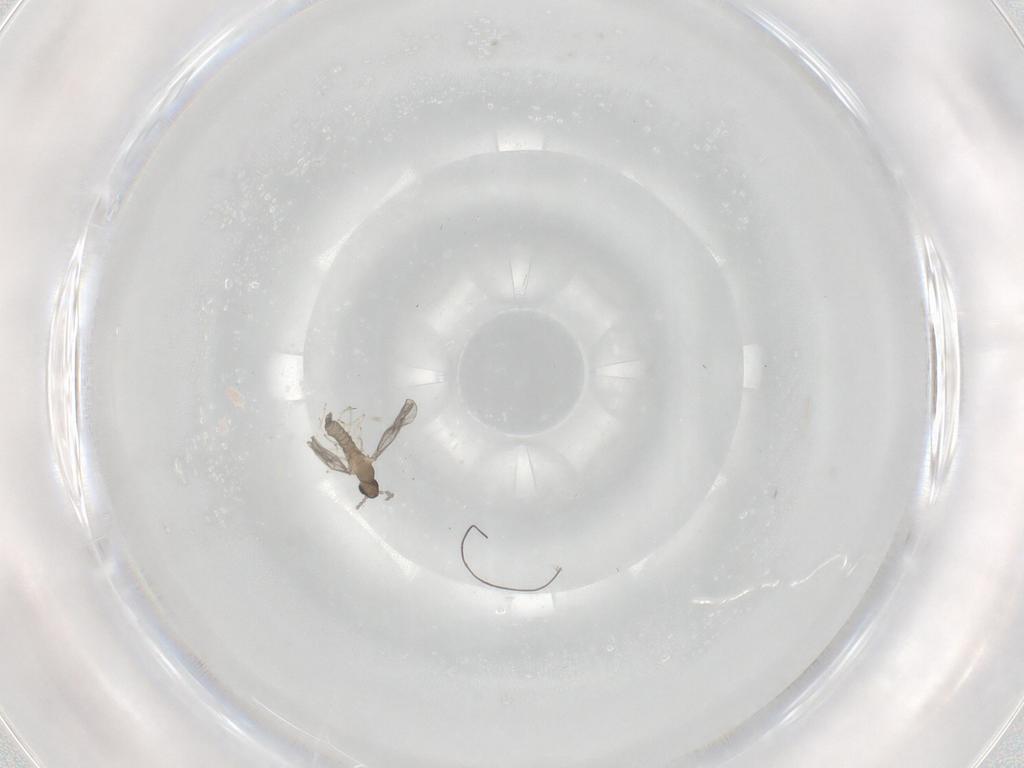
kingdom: Animalia
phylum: Arthropoda
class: Insecta
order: Diptera
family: Cecidomyiidae
